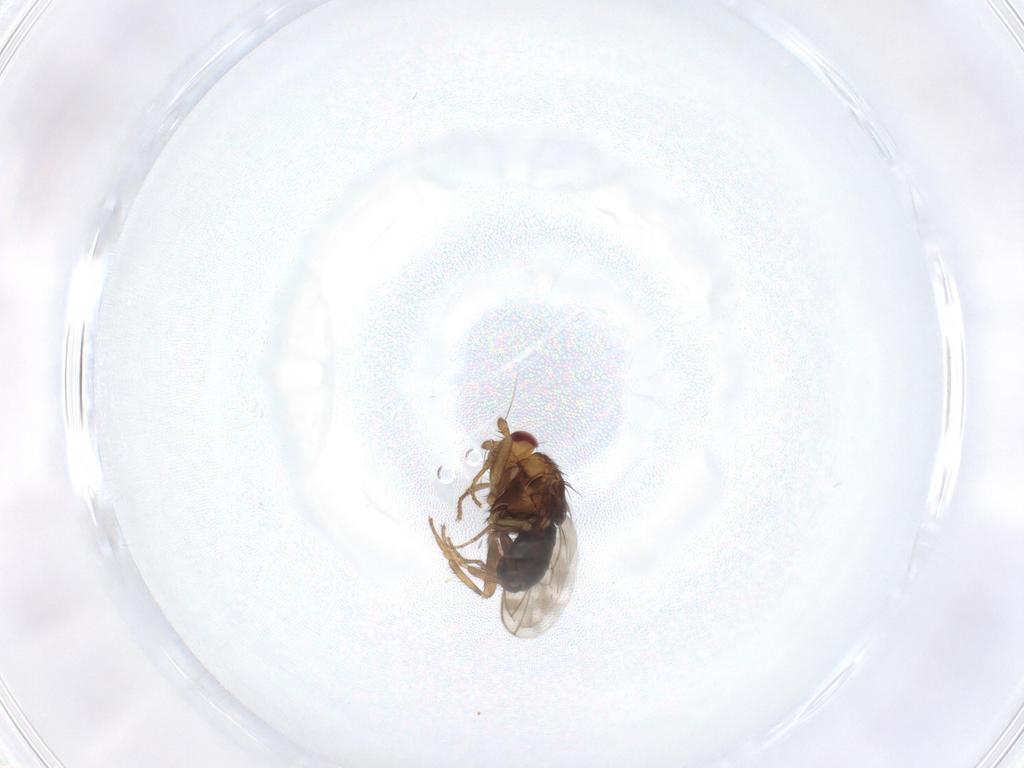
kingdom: Animalia
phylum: Arthropoda
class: Insecta
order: Diptera
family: Sphaeroceridae
